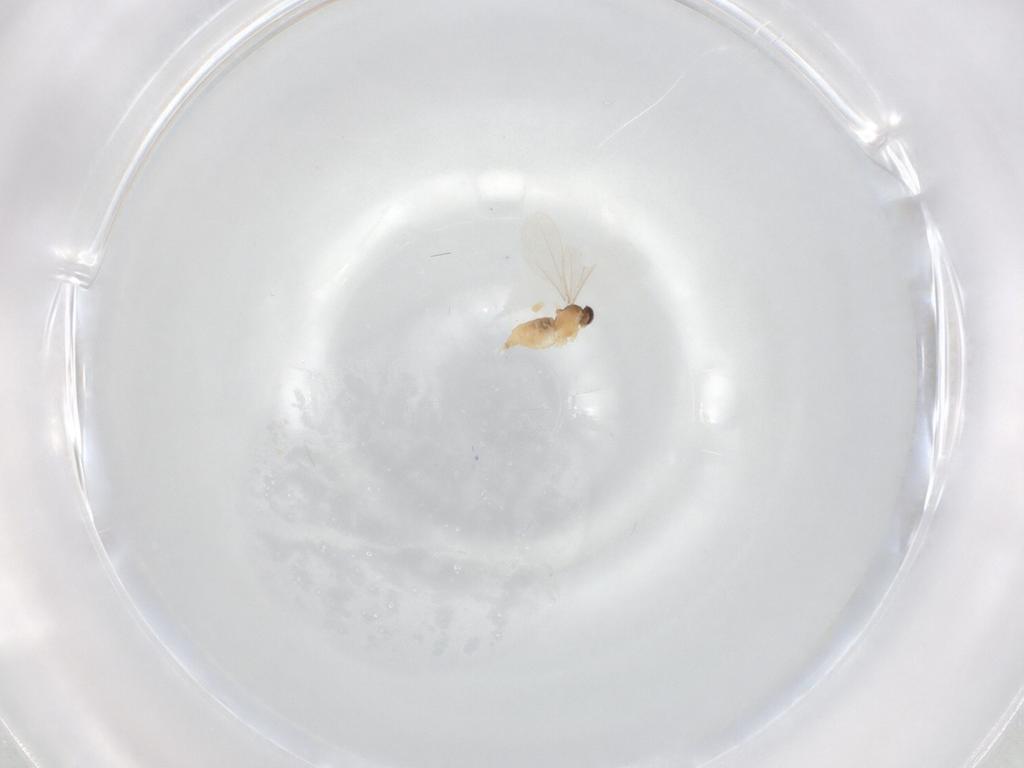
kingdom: Animalia
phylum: Arthropoda
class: Insecta
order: Diptera
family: Cecidomyiidae
